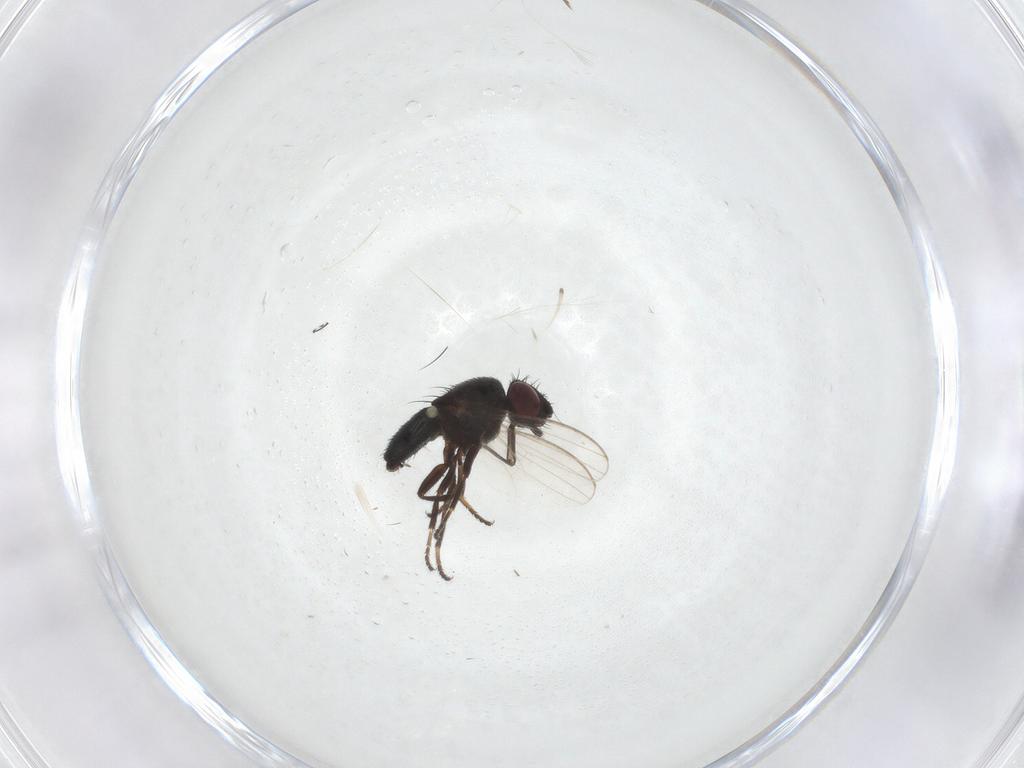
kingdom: Animalia
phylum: Arthropoda
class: Insecta
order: Diptera
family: Milichiidae
